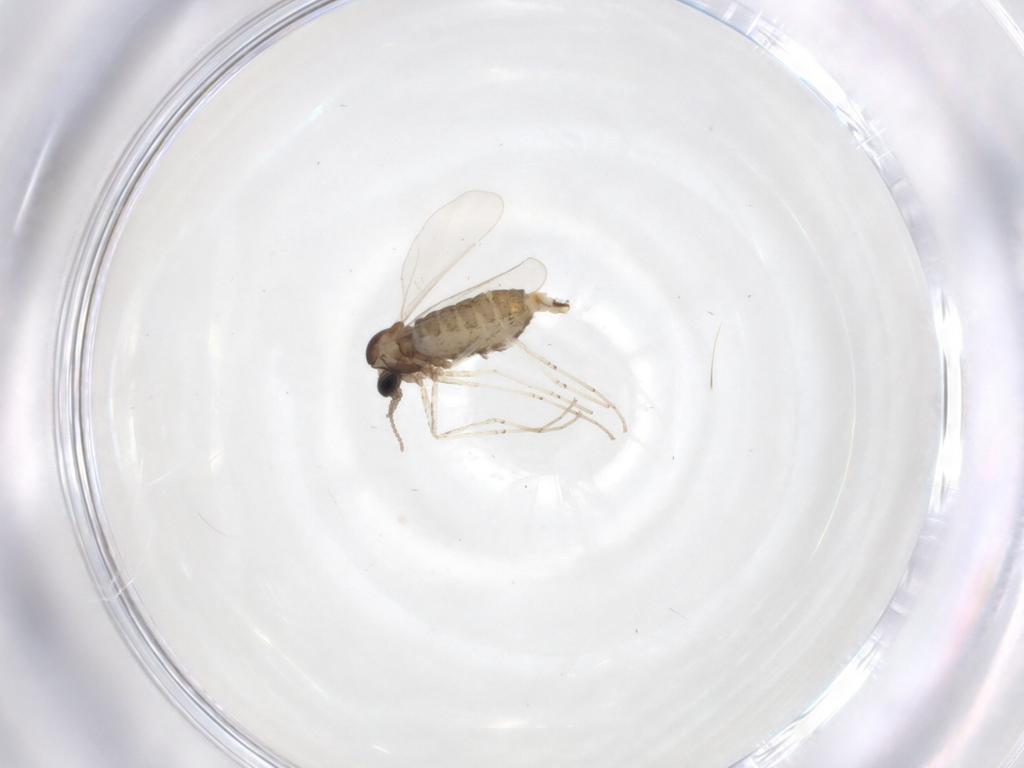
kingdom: Animalia
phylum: Arthropoda
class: Insecta
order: Diptera
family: Cecidomyiidae
